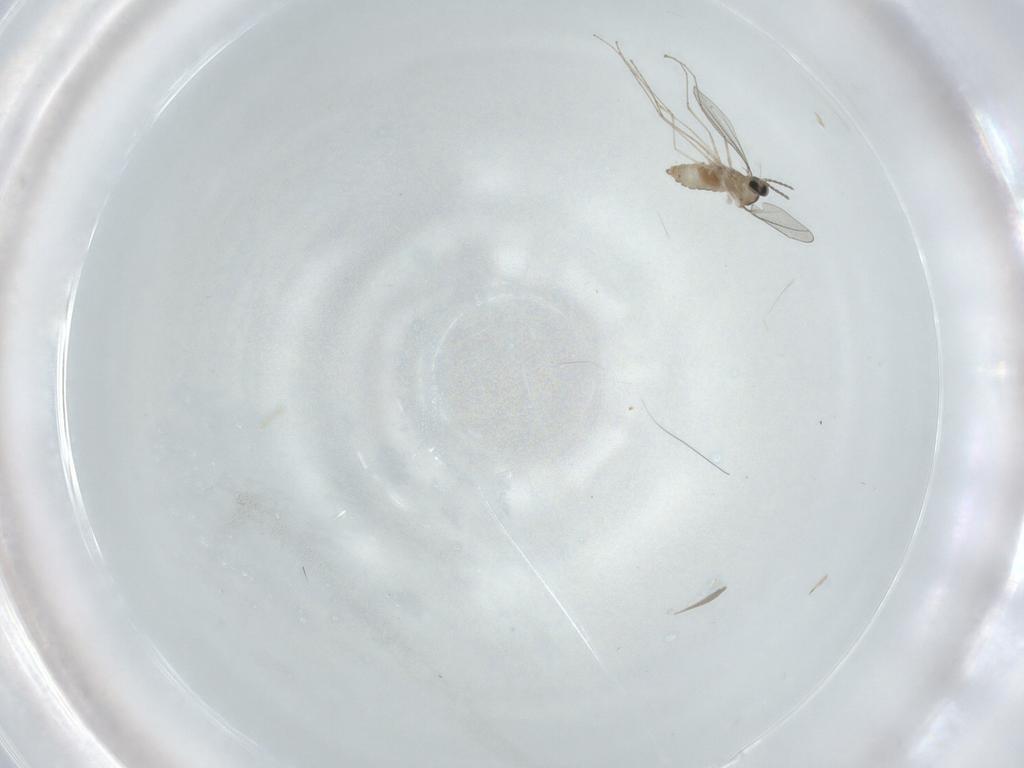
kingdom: Animalia
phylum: Arthropoda
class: Insecta
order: Diptera
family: Cecidomyiidae
